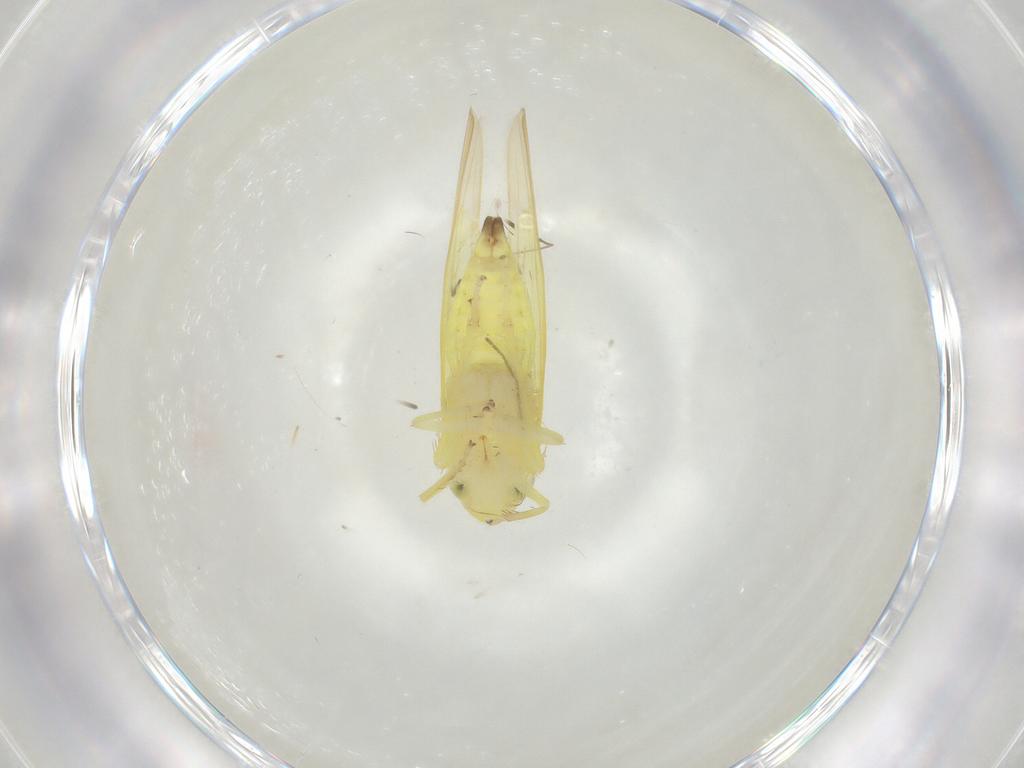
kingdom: Animalia
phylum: Arthropoda
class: Insecta
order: Hemiptera
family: Cicadellidae
